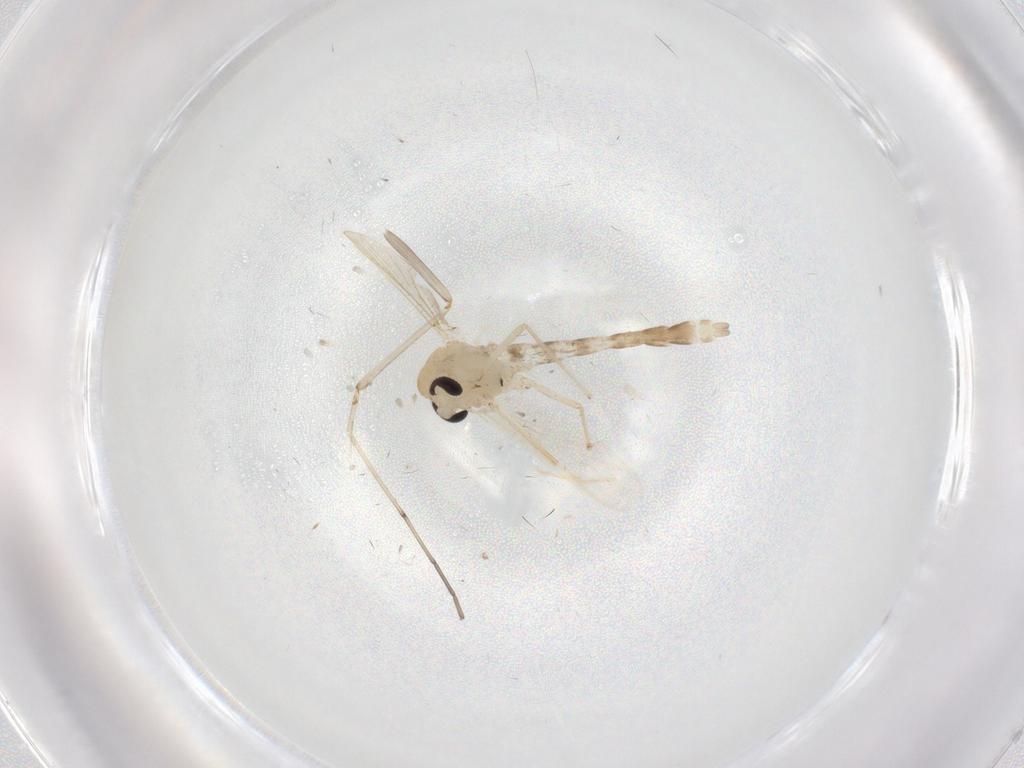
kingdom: Animalia
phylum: Arthropoda
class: Insecta
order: Diptera
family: Chironomidae
